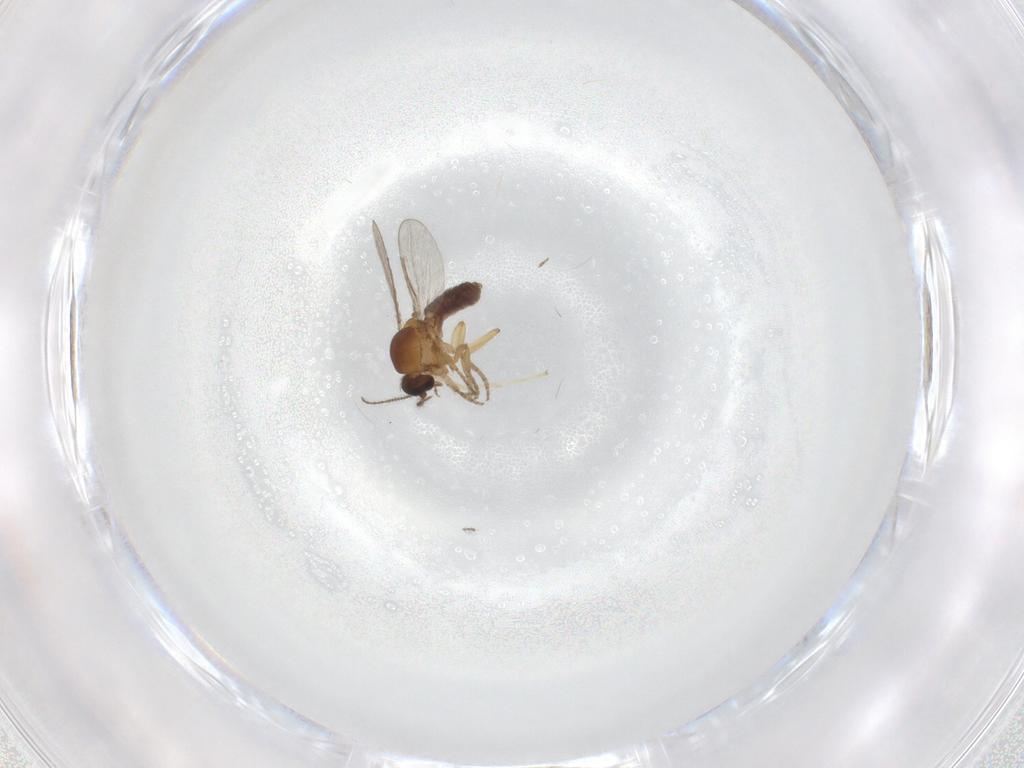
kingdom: Animalia
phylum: Arthropoda
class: Insecta
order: Diptera
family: Chironomidae
